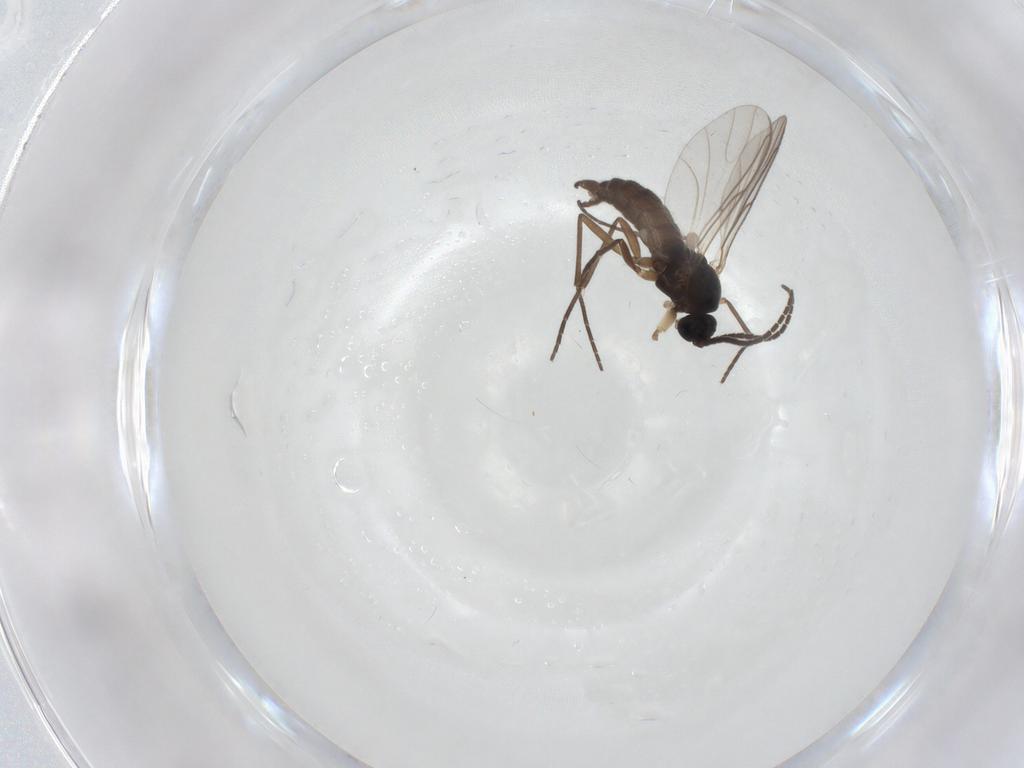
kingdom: Animalia
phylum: Arthropoda
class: Insecta
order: Diptera
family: Sciaridae
